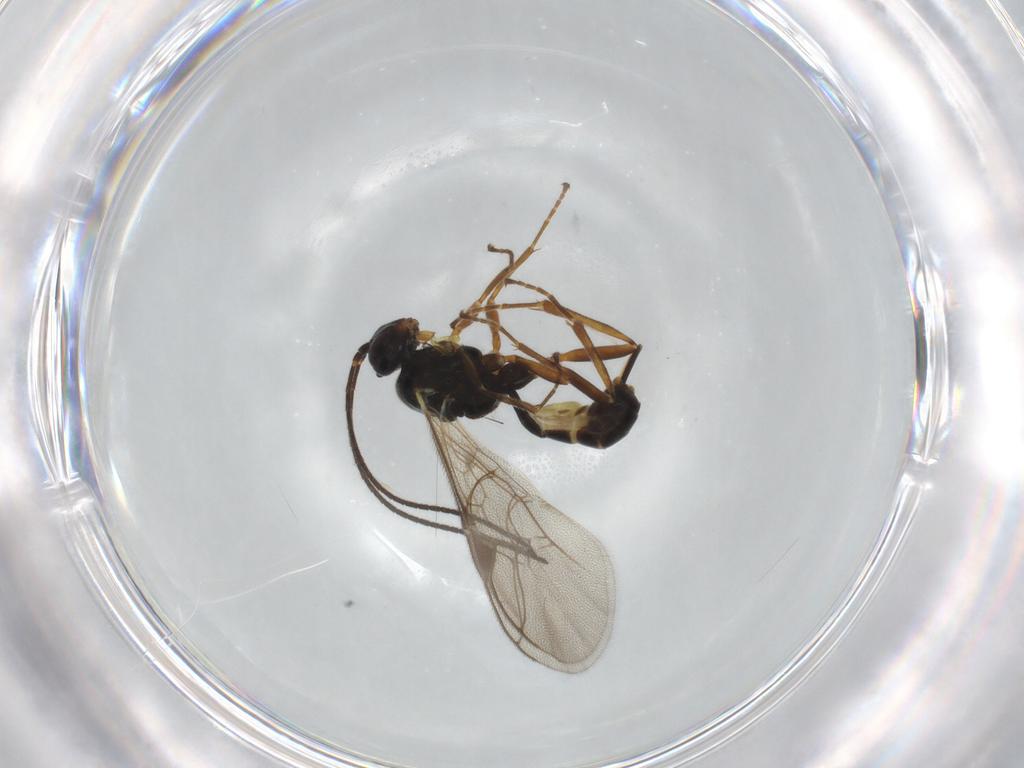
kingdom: Animalia
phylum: Arthropoda
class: Insecta
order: Hymenoptera
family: Ichneumonidae
